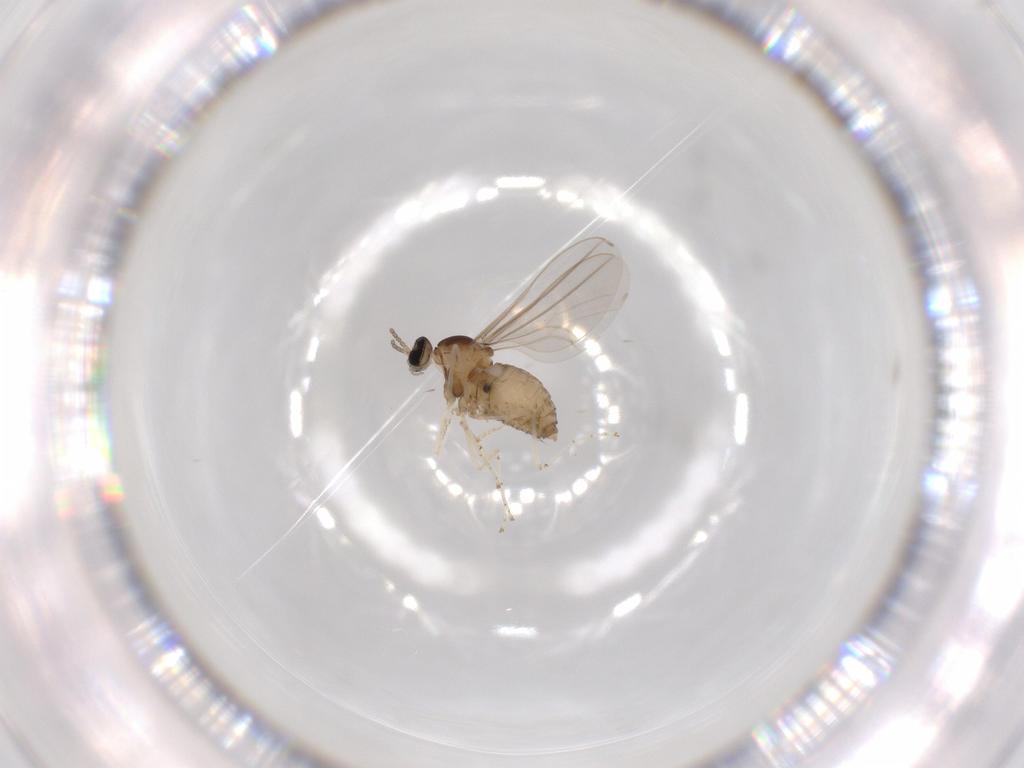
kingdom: Animalia
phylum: Arthropoda
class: Insecta
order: Diptera
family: Cecidomyiidae
